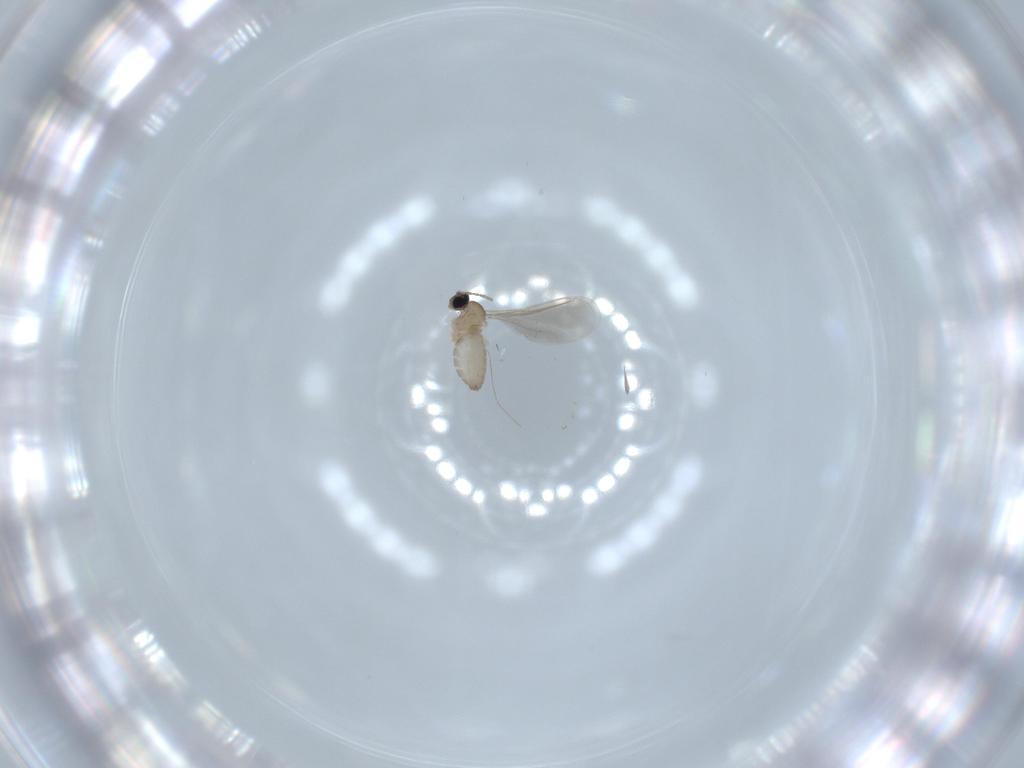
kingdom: Animalia
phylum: Arthropoda
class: Insecta
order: Diptera
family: Cecidomyiidae
